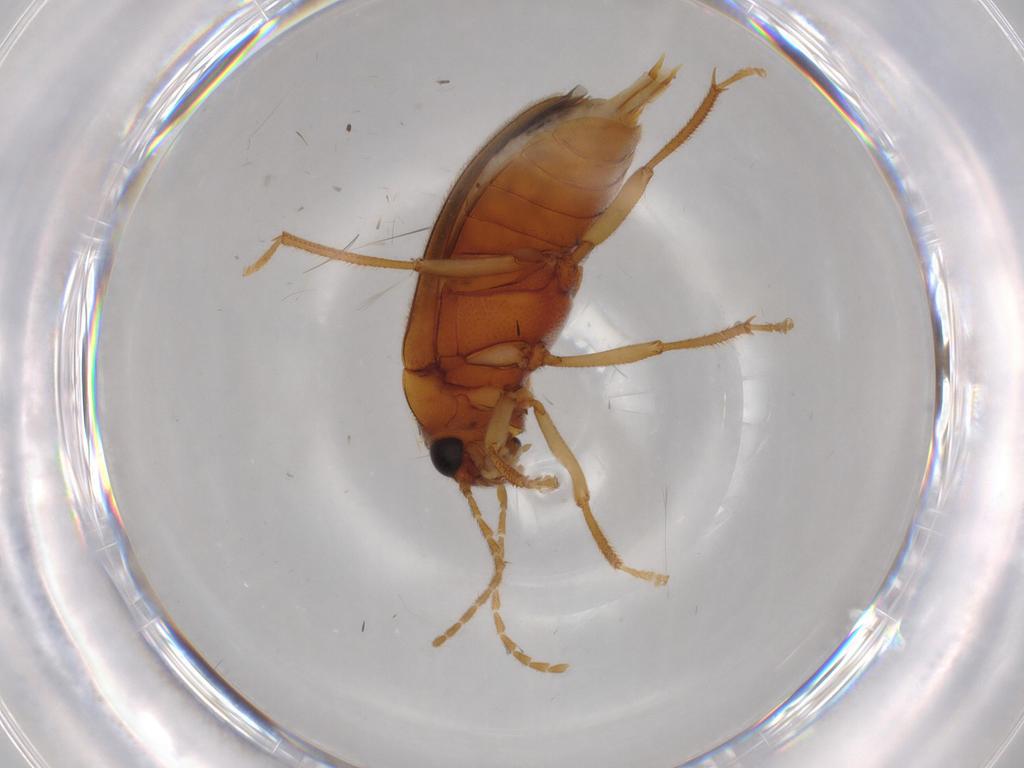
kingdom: Animalia
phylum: Arthropoda
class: Insecta
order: Coleoptera
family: Ptilodactylidae
